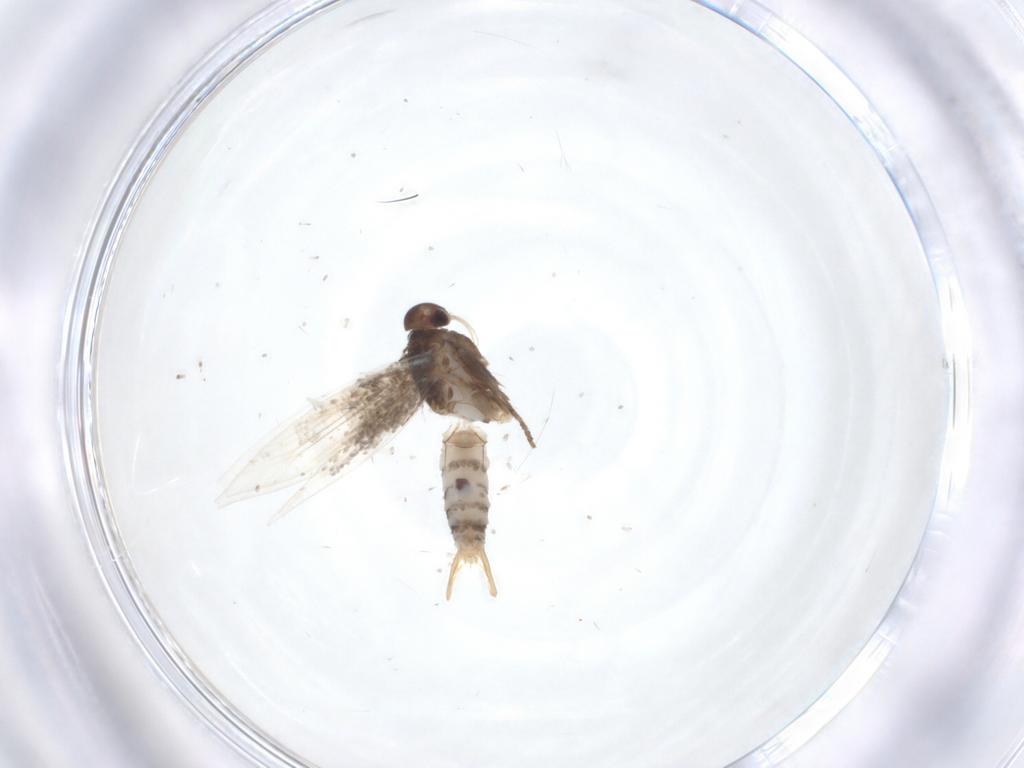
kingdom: Animalia
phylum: Arthropoda
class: Insecta
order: Lepidoptera
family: Elachistidae
